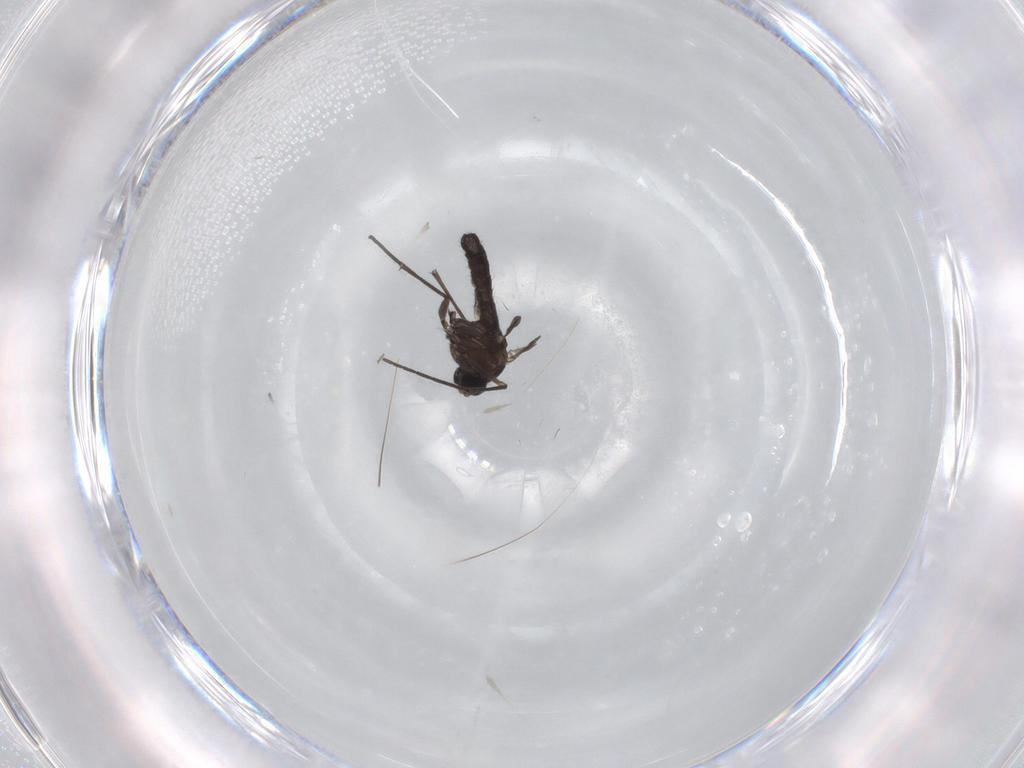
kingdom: Animalia
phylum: Arthropoda
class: Insecta
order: Diptera
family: Sciaridae
